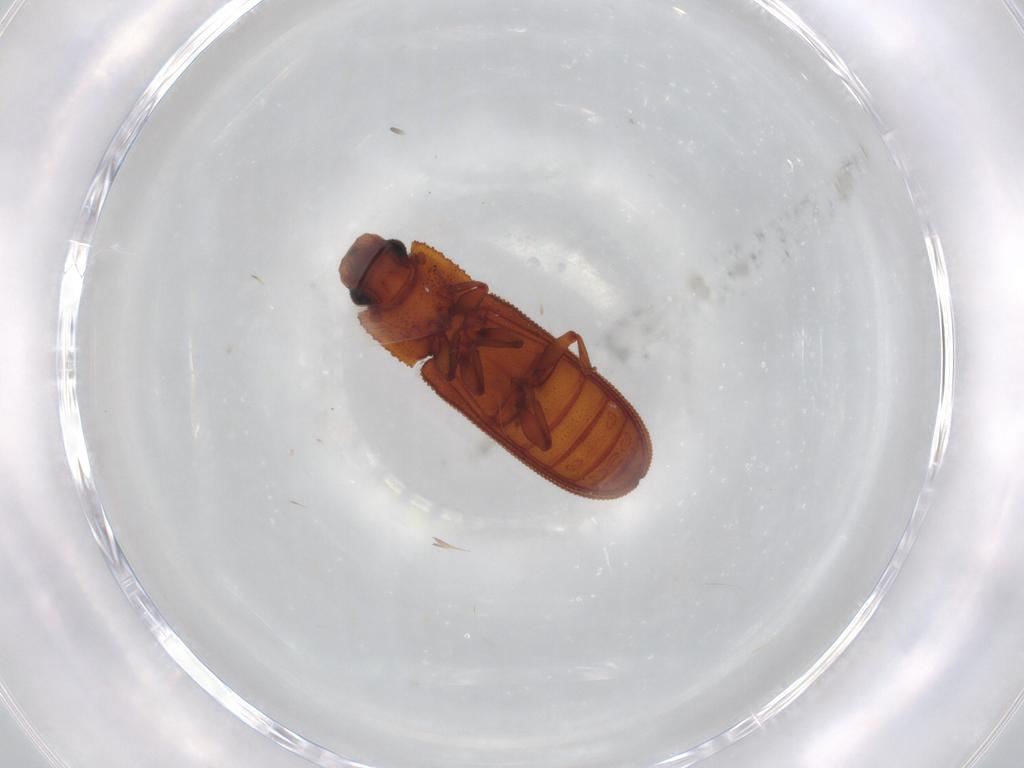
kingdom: Animalia
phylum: Arthropoda
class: Insecta
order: Coleoptera
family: Zopheridae
